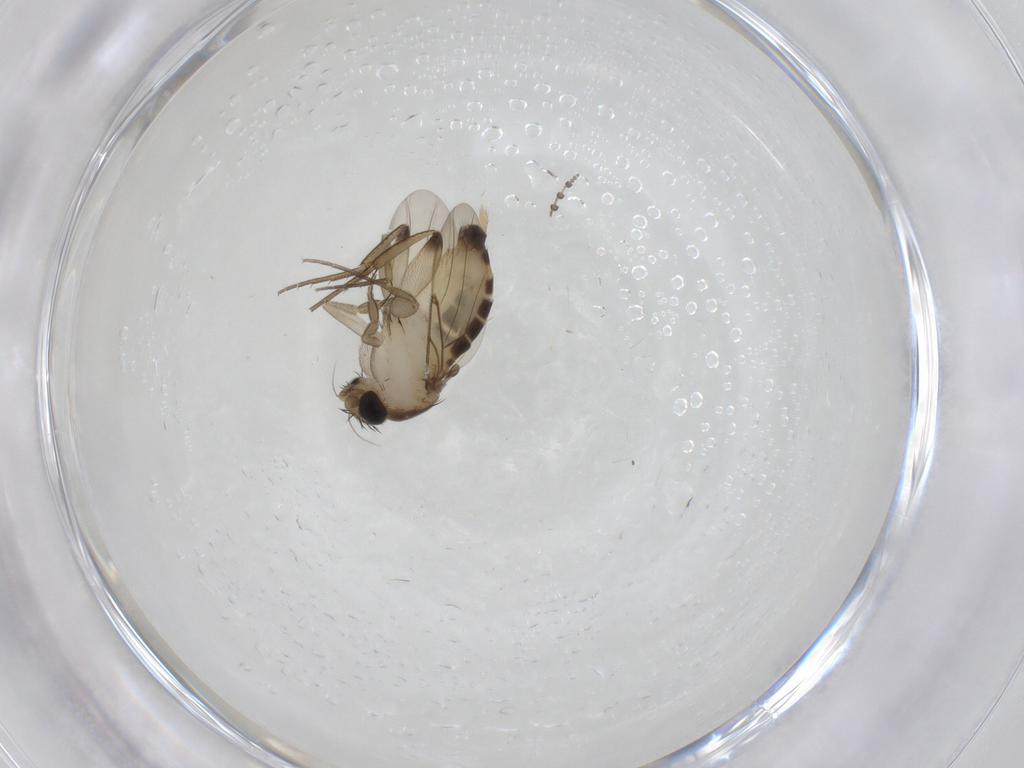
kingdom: Animalia
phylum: Arthropoda
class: Insecta
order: Diptera
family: Phoridae
